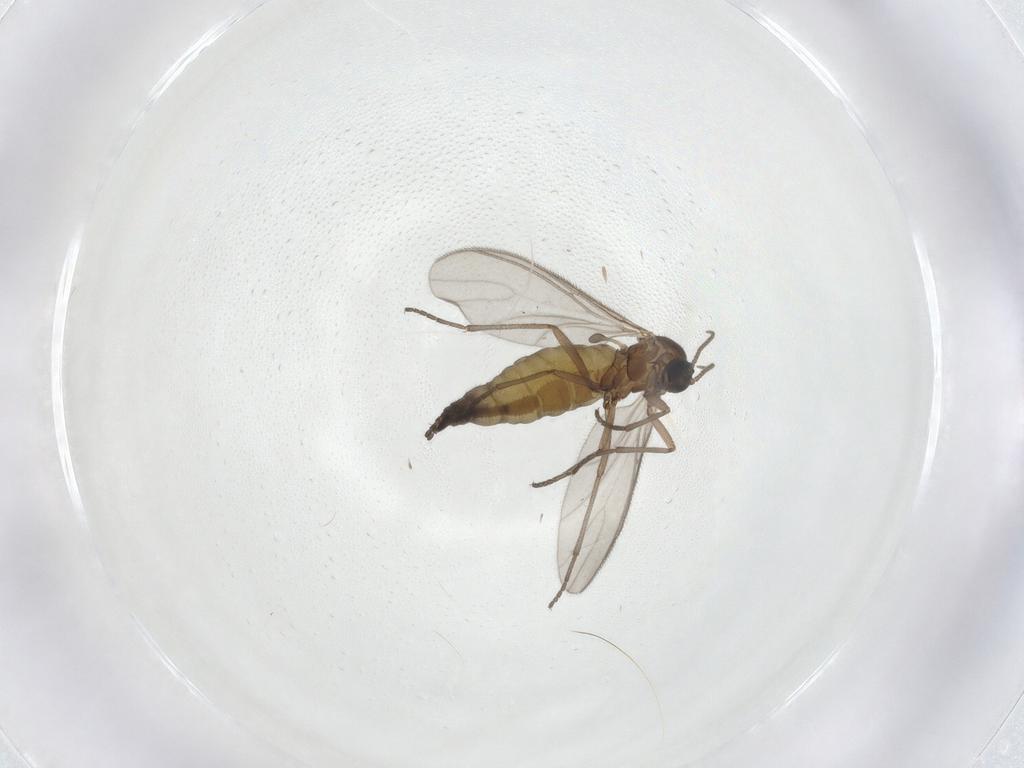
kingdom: Animalia
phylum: Arthropoda
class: Insecta
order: Diptera
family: Sciaridae
